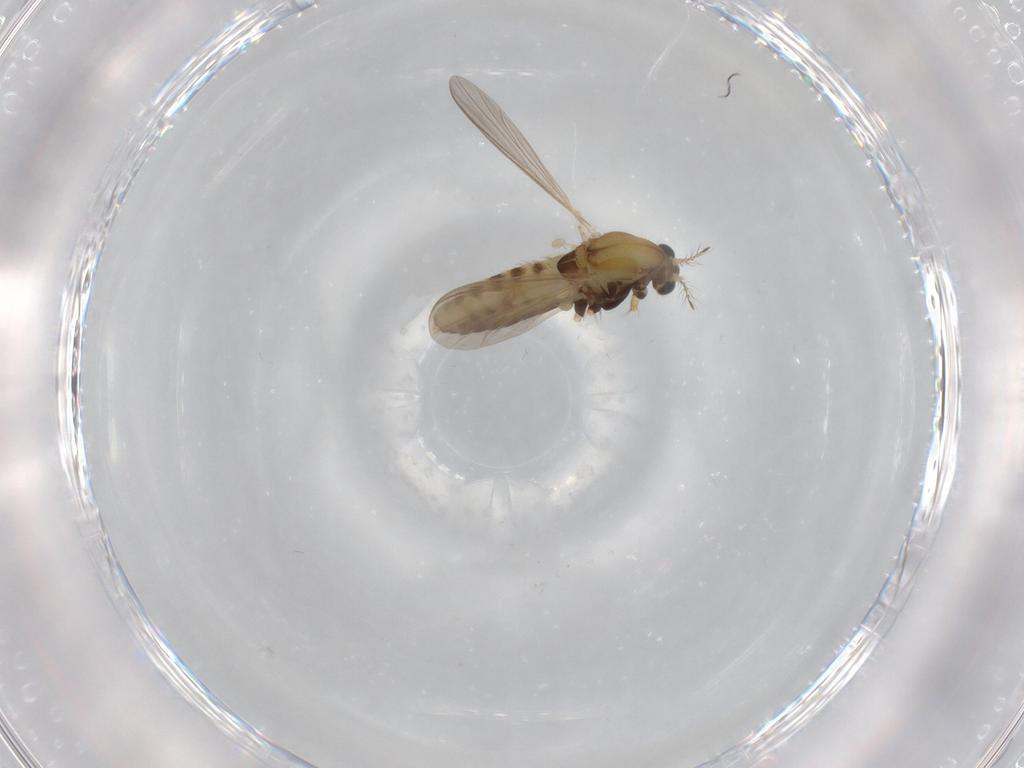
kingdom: Animalia
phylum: Arthropoda
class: Insecta
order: Diptera
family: Chironomidae
